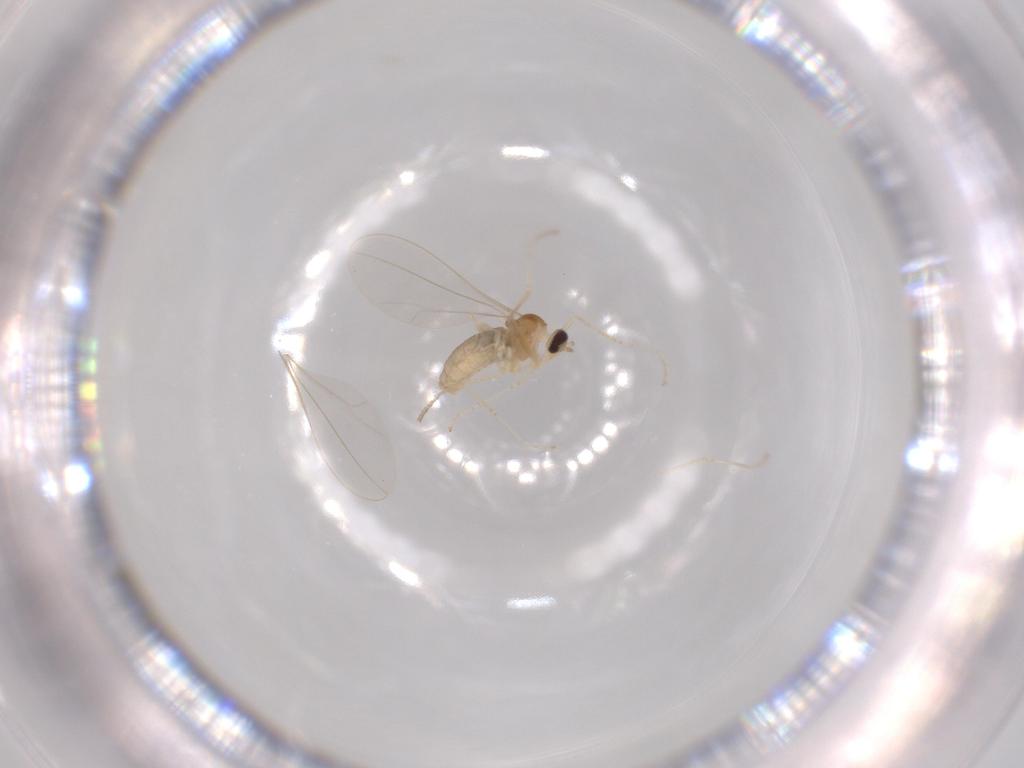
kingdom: Animalia
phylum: Arthropoda
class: Insecta
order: Diptera
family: Cecidomyiidae
